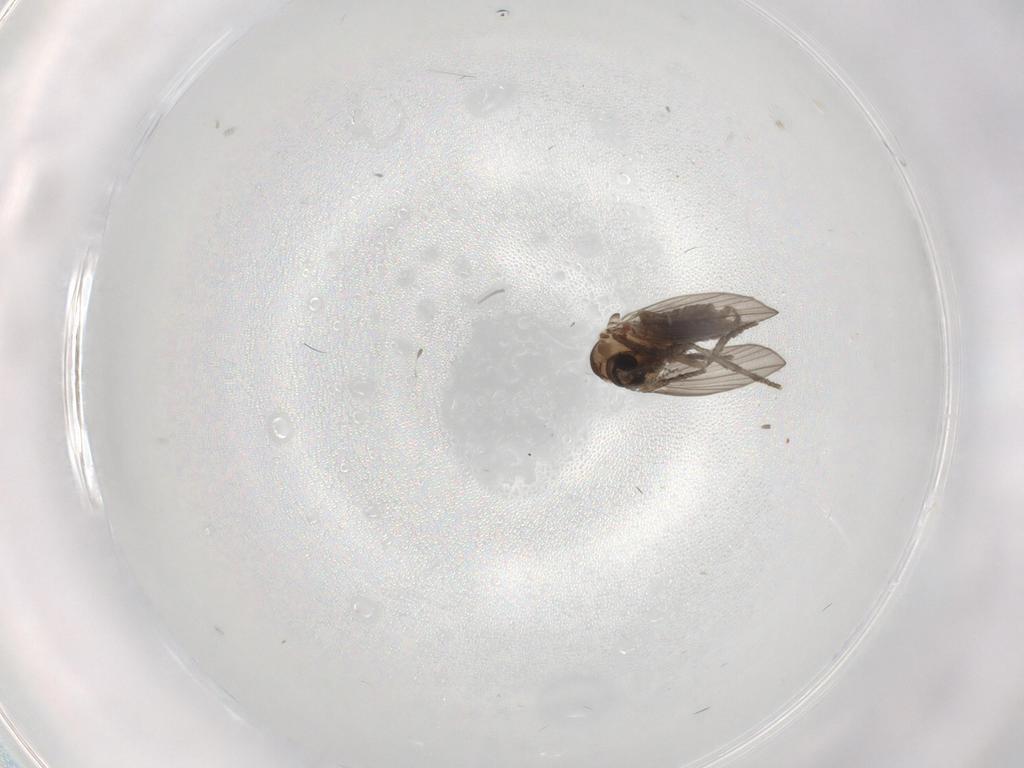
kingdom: Animalia
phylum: Arthropoda
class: Insecta
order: Diptera
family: Psychodidae
